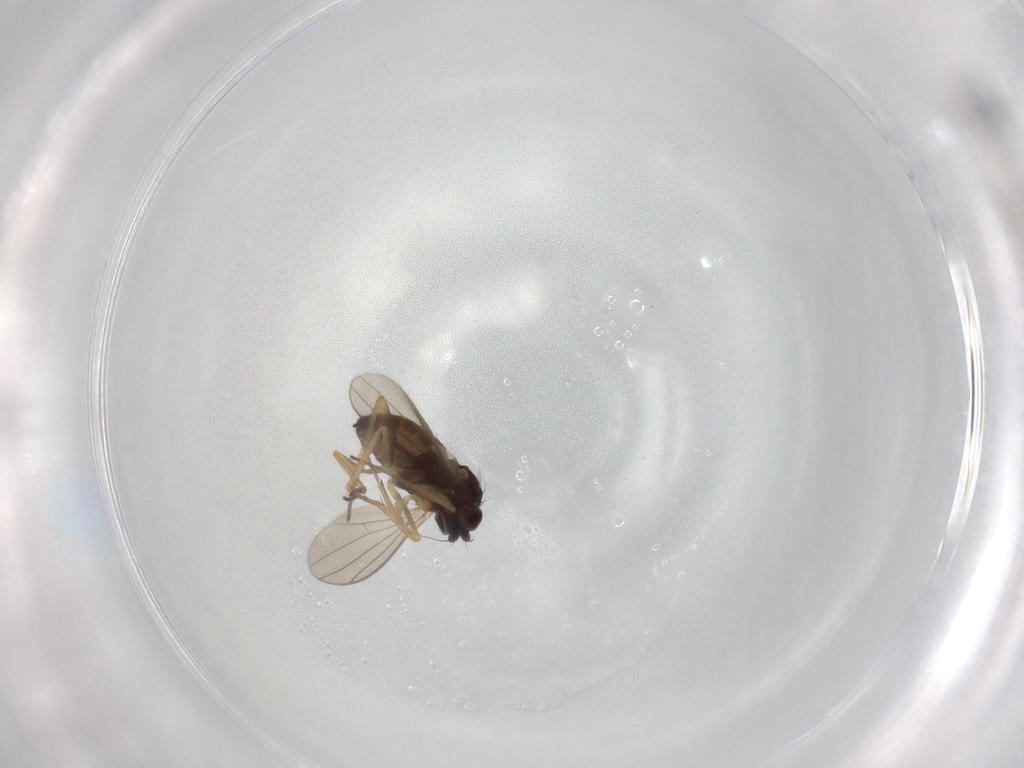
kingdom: Animalia
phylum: Arthropoda
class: Insecta
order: Diptera
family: Dolichopodidae
